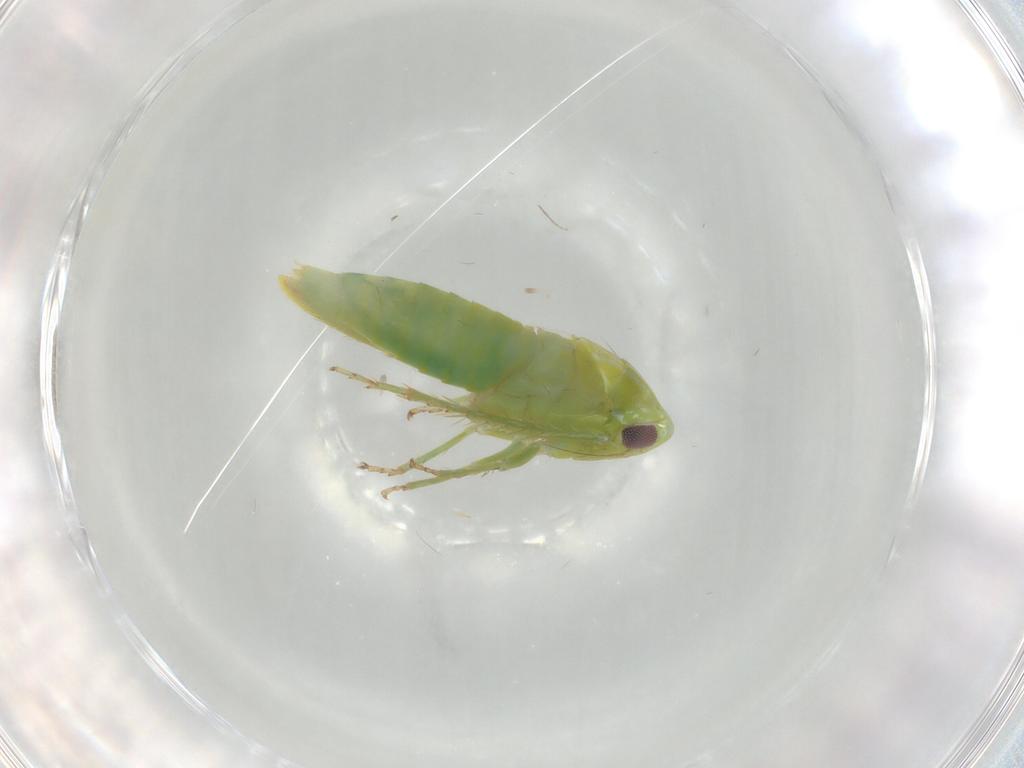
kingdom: Animalia
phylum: Arthropoda
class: Insecta
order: Hemiptera
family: Cicadellidae
